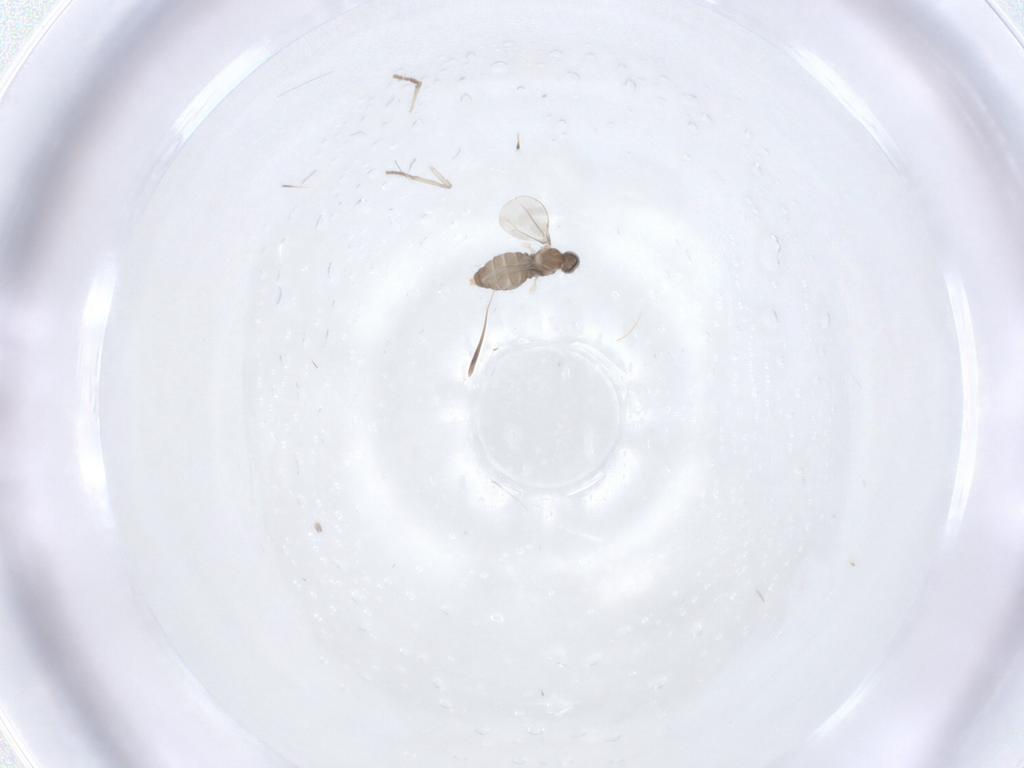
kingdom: Animalia
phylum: Arthropoda
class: Insecta
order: Diptera
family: Cecidomyiidae
